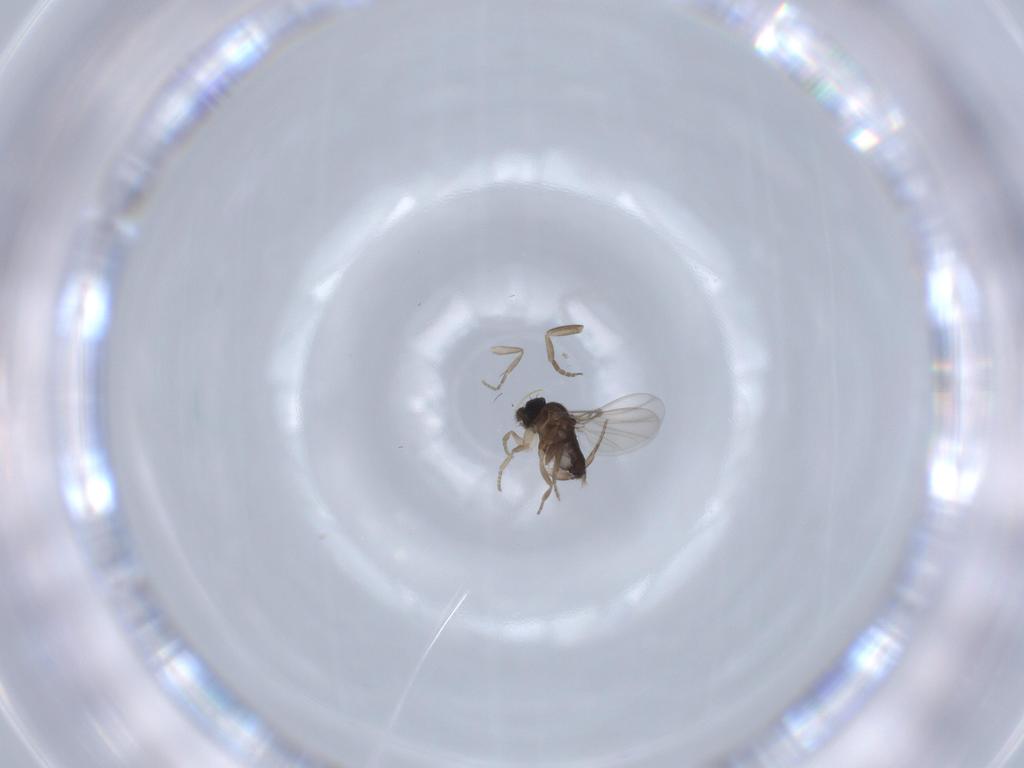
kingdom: Animalia
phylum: Arthropoda
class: Insecta
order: Diptera
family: Phoridae
